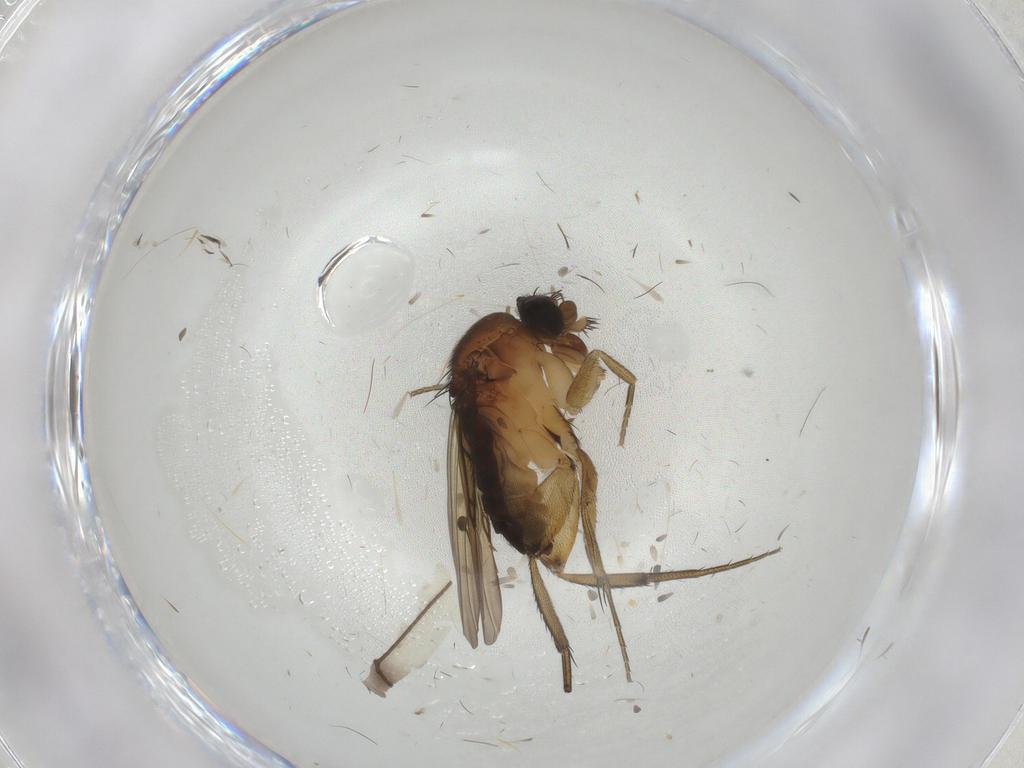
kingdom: Animalia
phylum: Arthropoda
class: Insecta
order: Diptera
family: Phoridae
